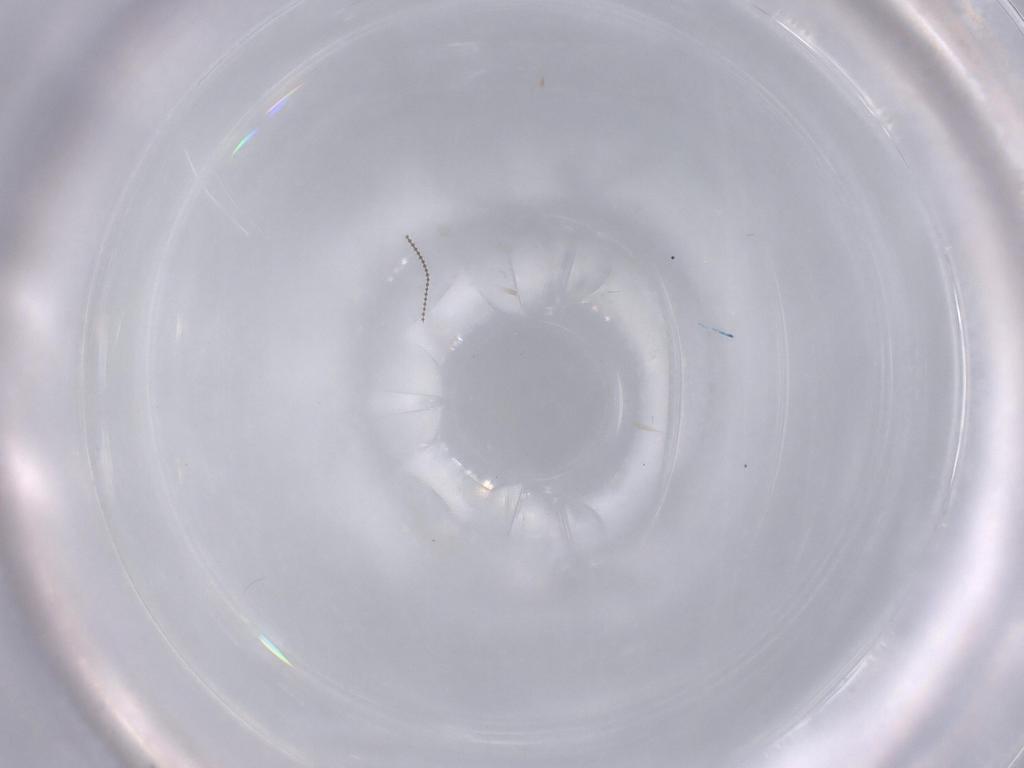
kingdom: Animalia
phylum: Arthropoda
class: Insecta
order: Diptera
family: Cecidomyiidae
